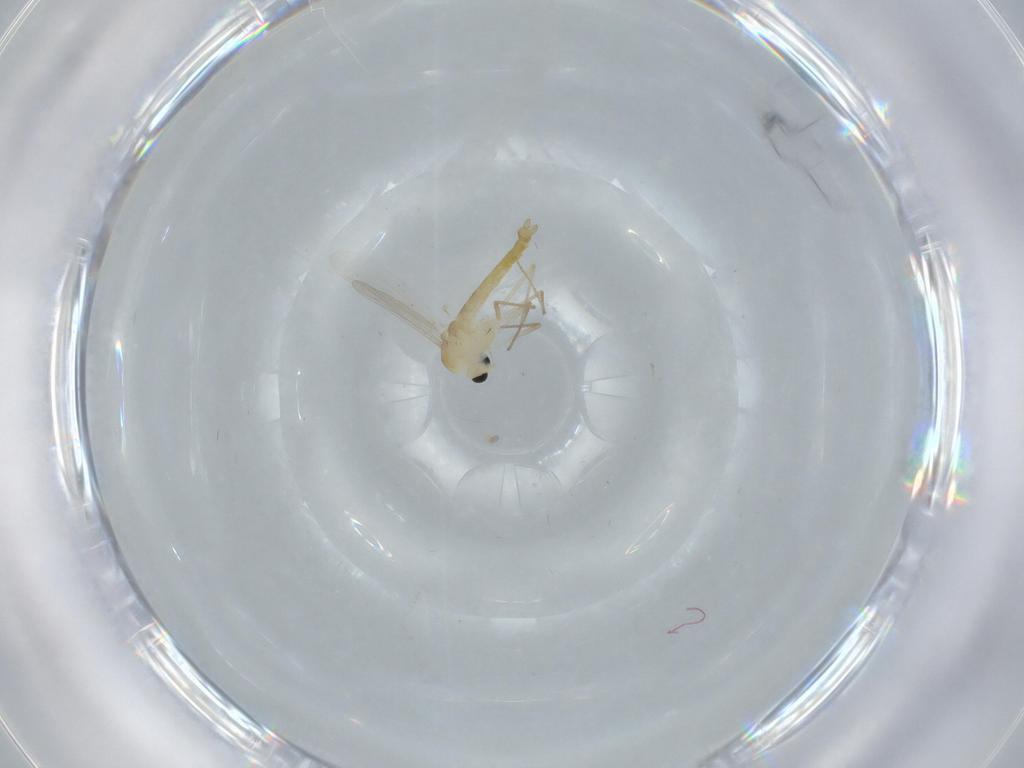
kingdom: Animalia
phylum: Arthropoda
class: Insecta
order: Diptera
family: Chironomidae
